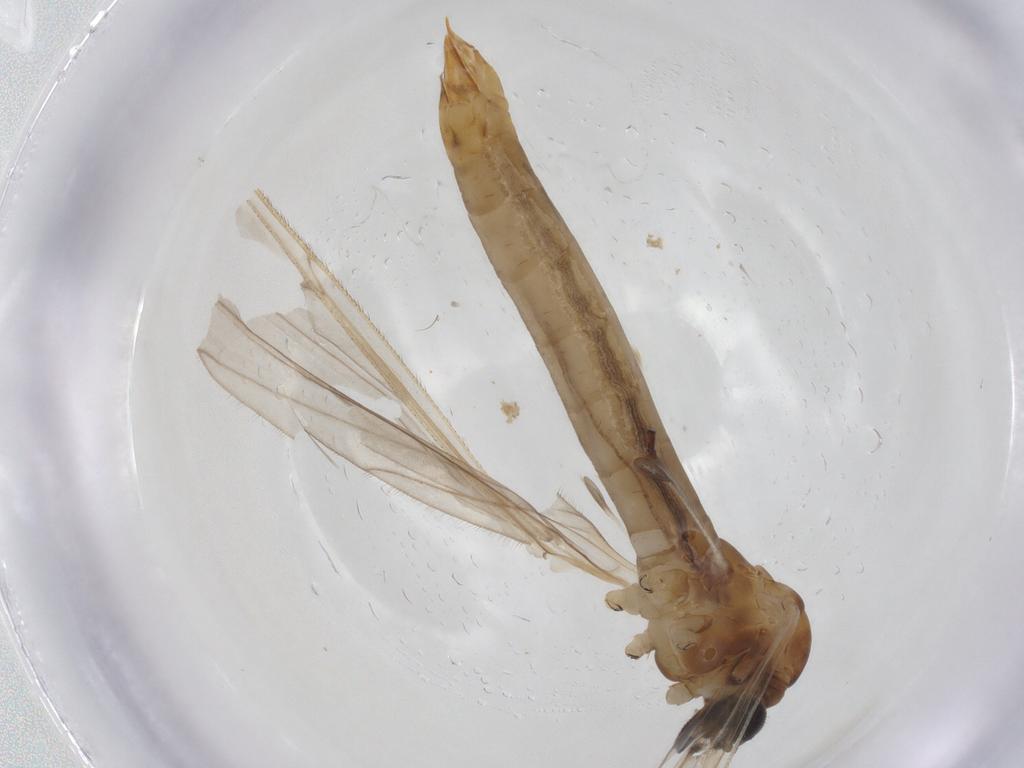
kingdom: Animalia
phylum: Arthropoda
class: Insecta
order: Diptera
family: Limoniidae
